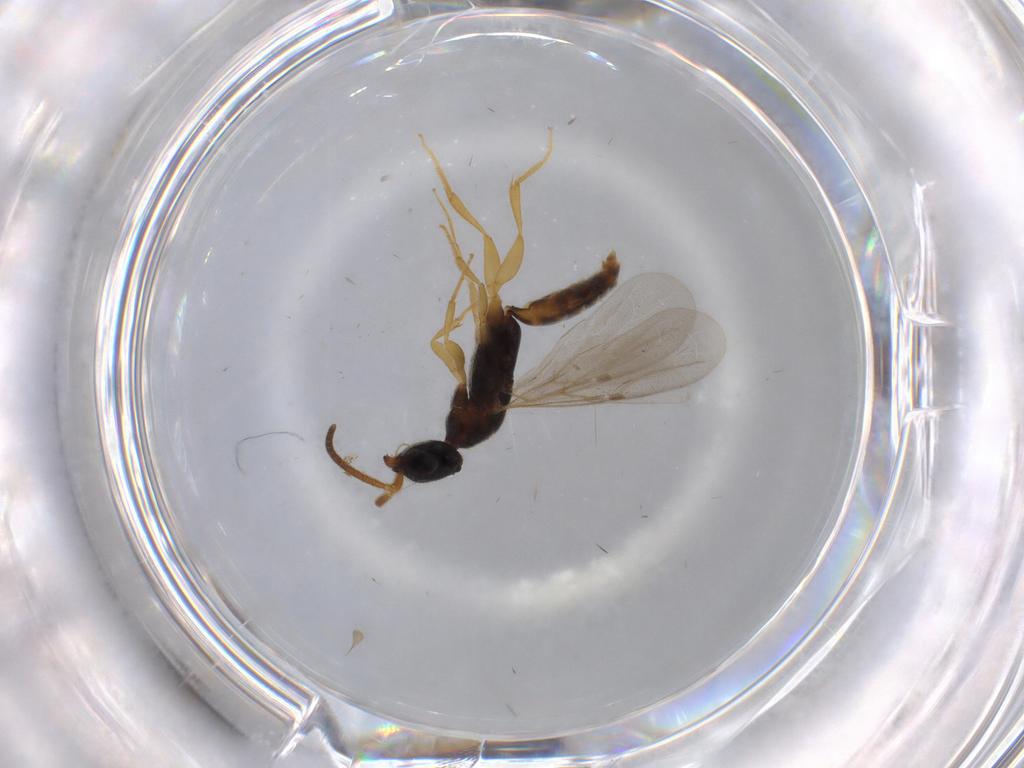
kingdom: Animalia
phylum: Arthropoda
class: Insecta
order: Hymenoptera
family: Bethylidae
